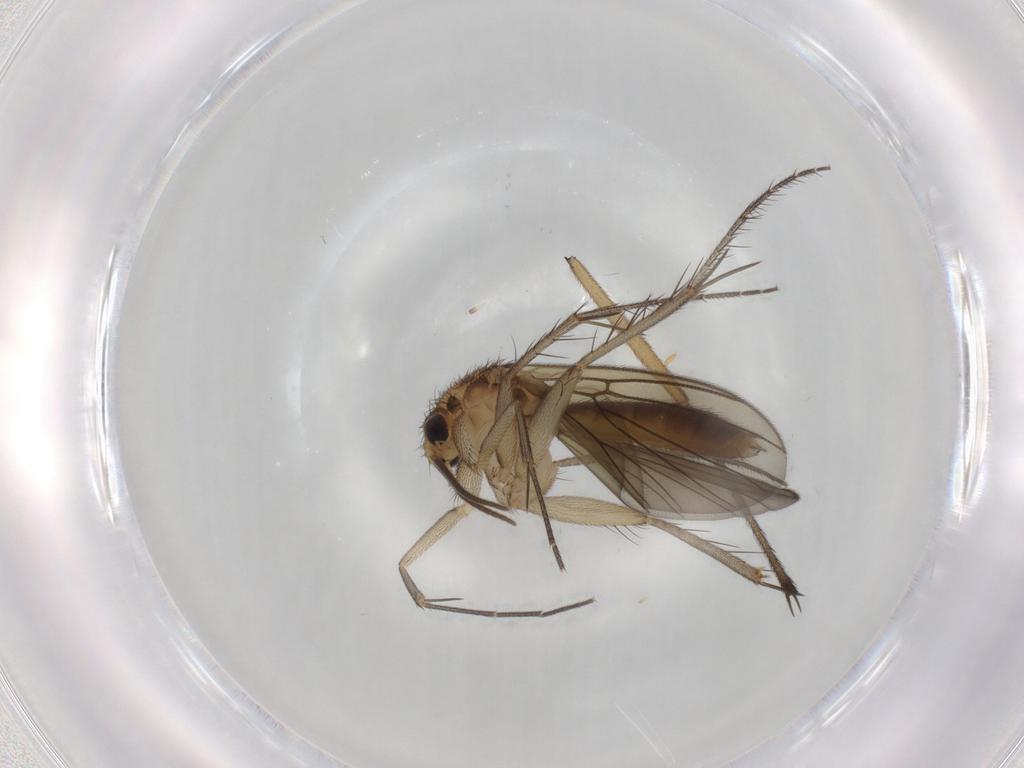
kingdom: Animalia
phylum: Arthropoda
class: Insecta
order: Diptera
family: Mycetophilidae
